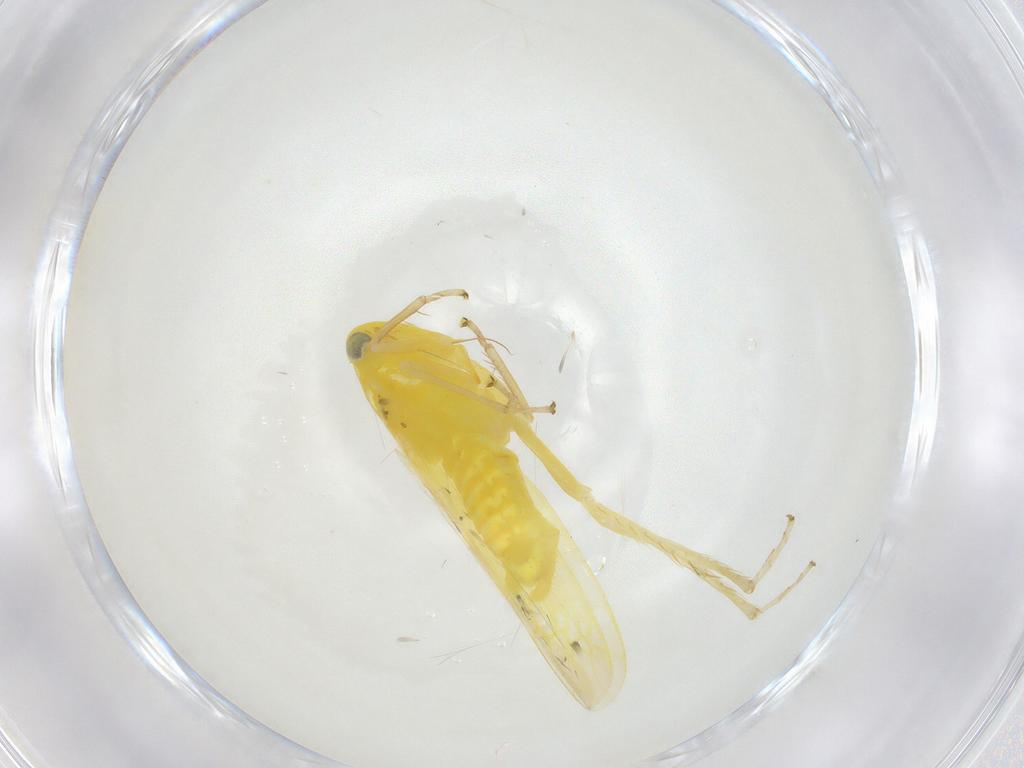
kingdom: Animalia
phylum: Arthropoda
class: Insecta
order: Hemiptera
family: Cicadellidae
